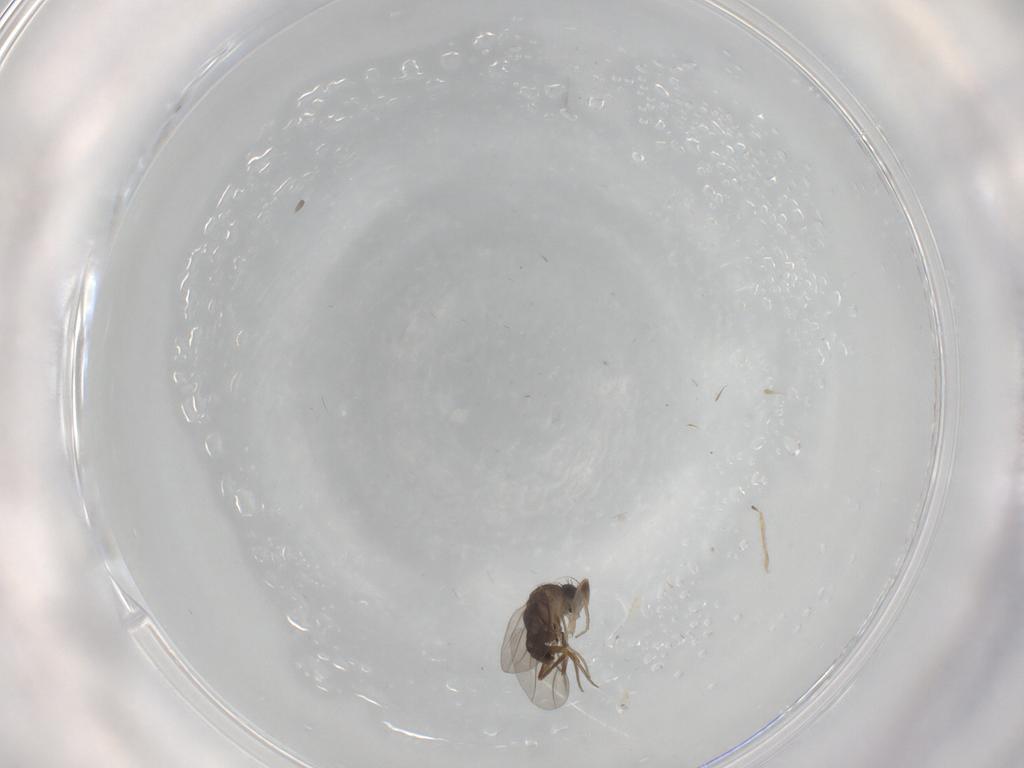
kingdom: Animalia
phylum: Arthropoda
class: Insecta
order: Diptera
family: Phoridae
